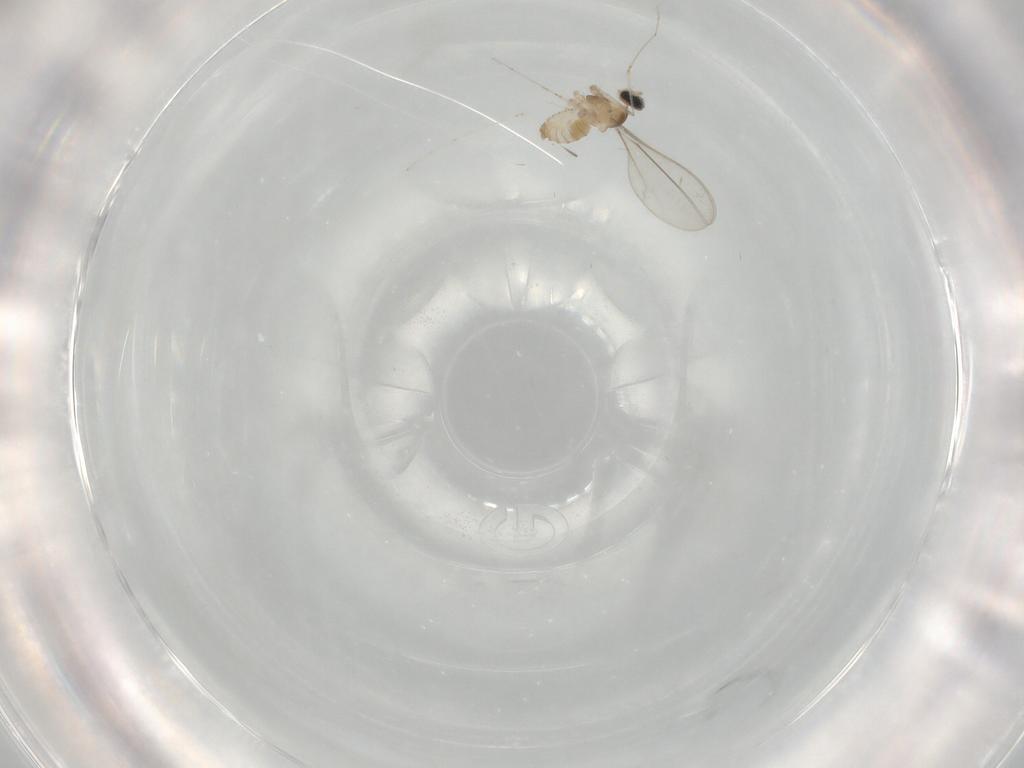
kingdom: Animalia
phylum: Arthropoda
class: Insecta
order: Diptera
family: Cecidomyiidae
